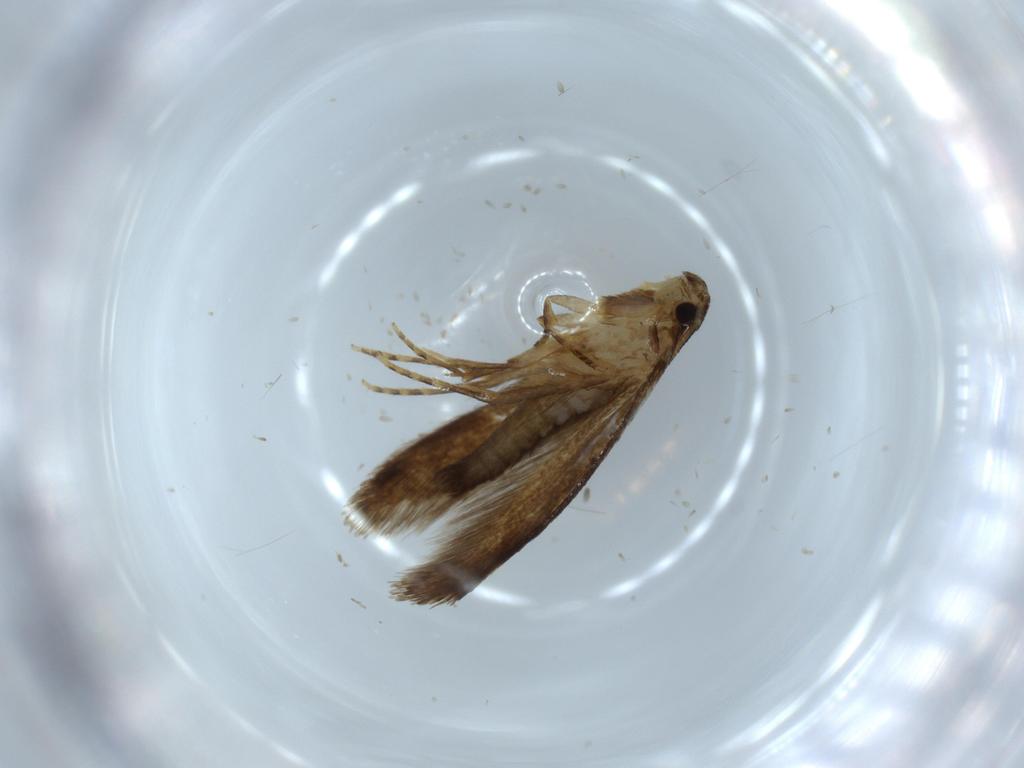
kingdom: Animalia
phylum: Arthropoda
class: Insecta
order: Lepidoptera
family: Tineidae
